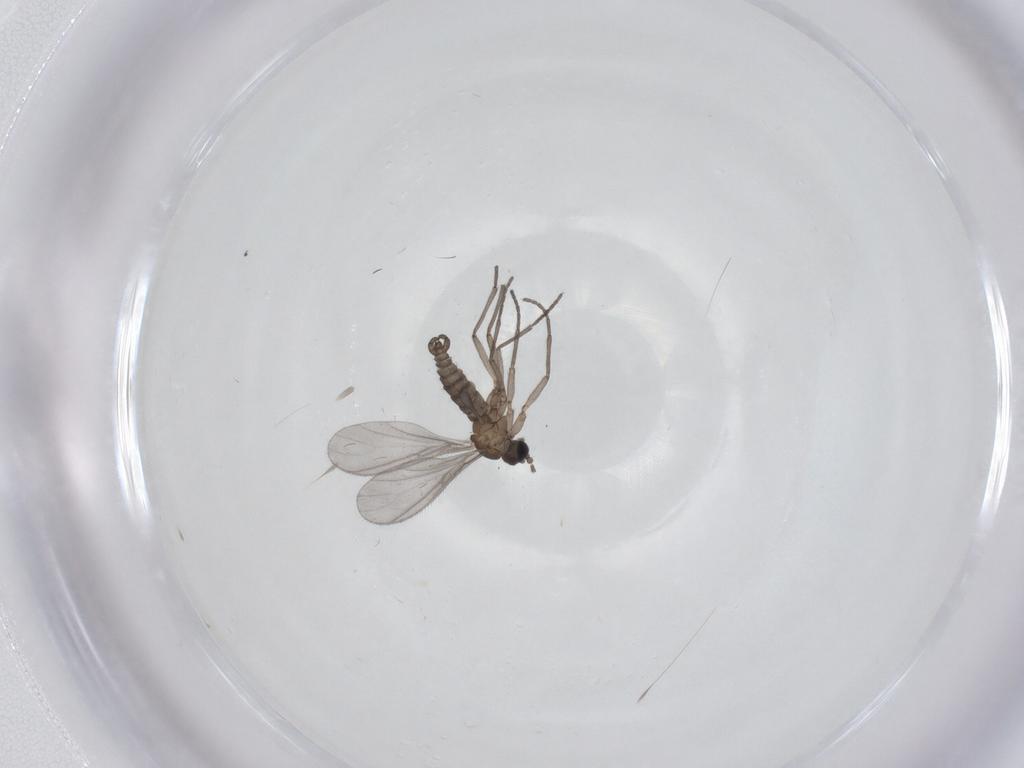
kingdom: Animalia
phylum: Arthropoda
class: Insecta
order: Diptera
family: Sciaridae
